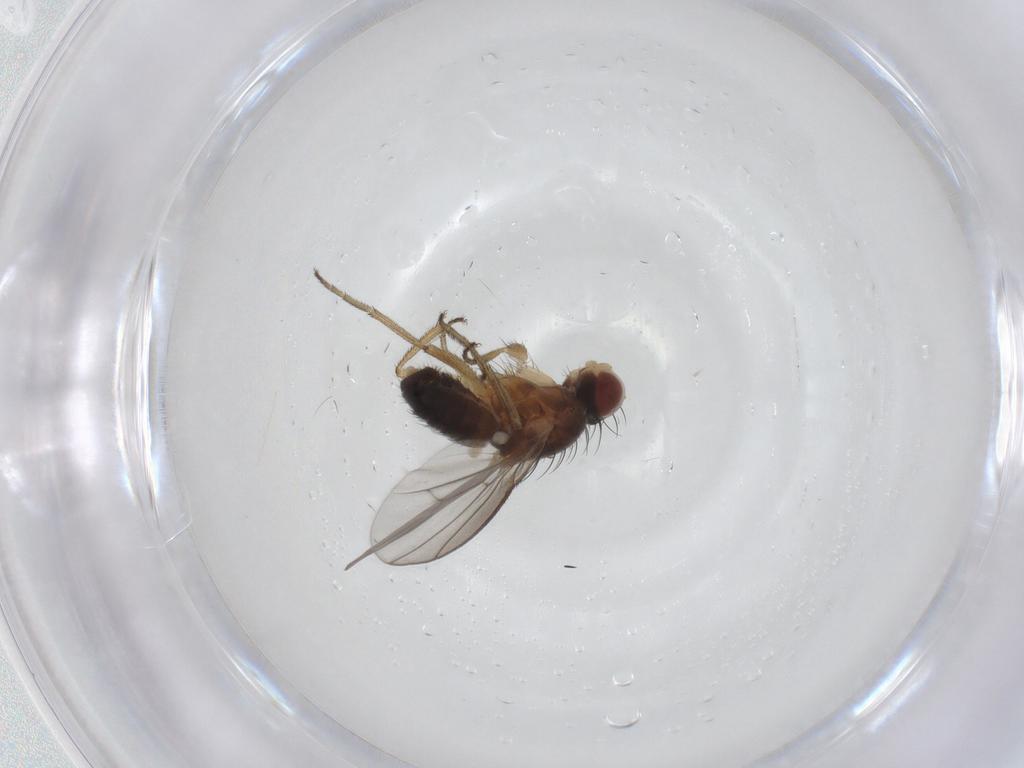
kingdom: Animalia
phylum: Arthropoda
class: Insecta
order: Diptera
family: Heleomyzidae
